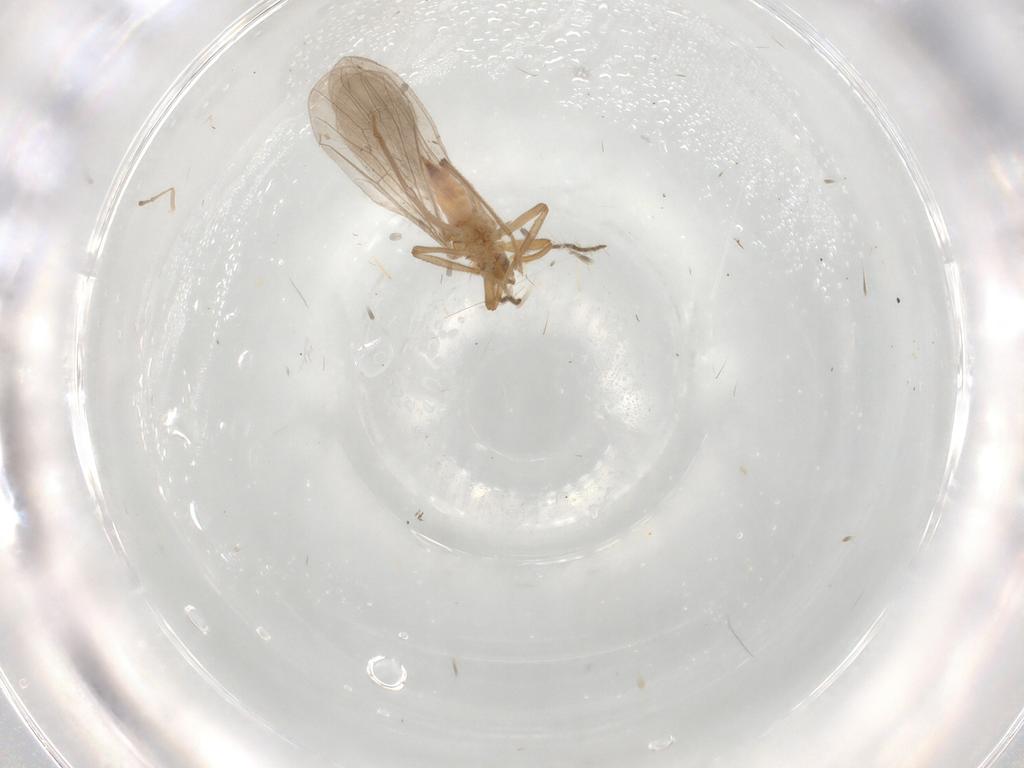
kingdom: Animalia
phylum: Arthropoda
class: Insecta
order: Neuroptera
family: Coniopterygidae
